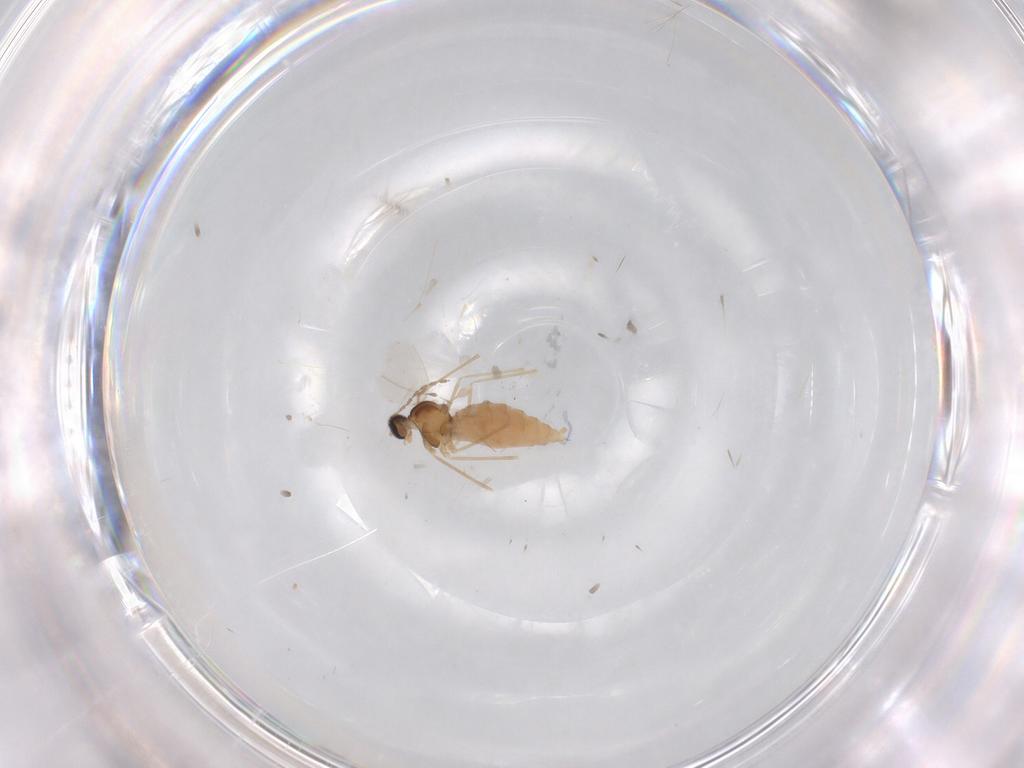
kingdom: Animalia
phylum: Arthropoda
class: Insecta
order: Diptera
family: Cecidomyiidae
